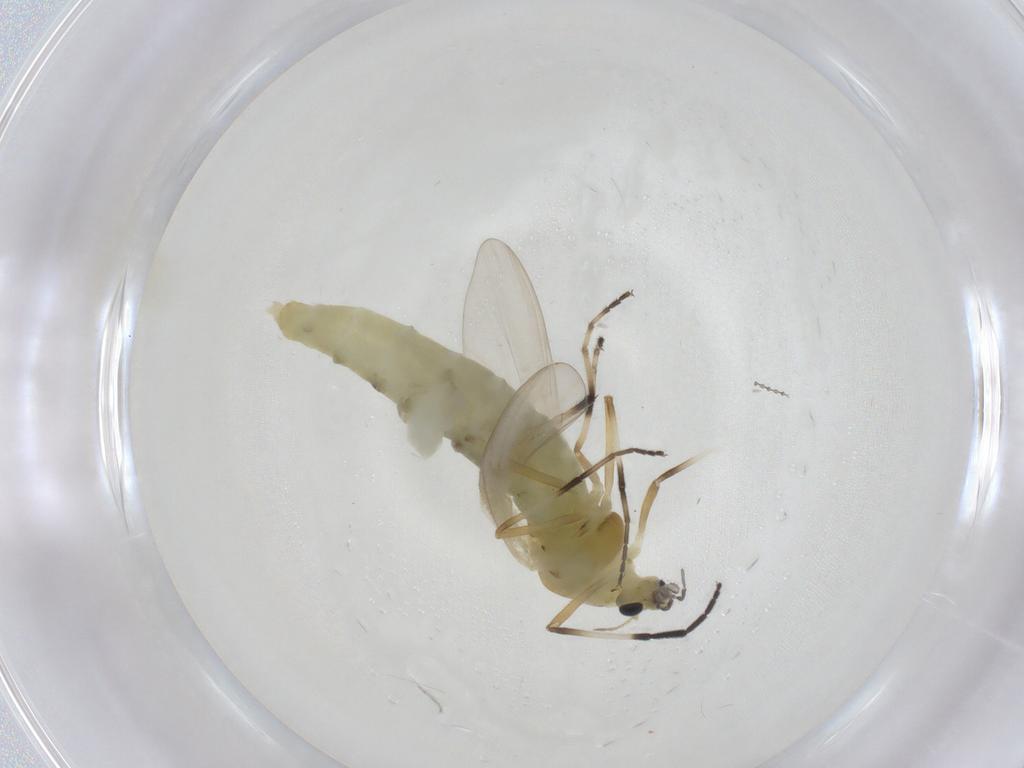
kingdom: Animalia
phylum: Arthropoda
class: Insecta
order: Diptera
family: Chironomidae
